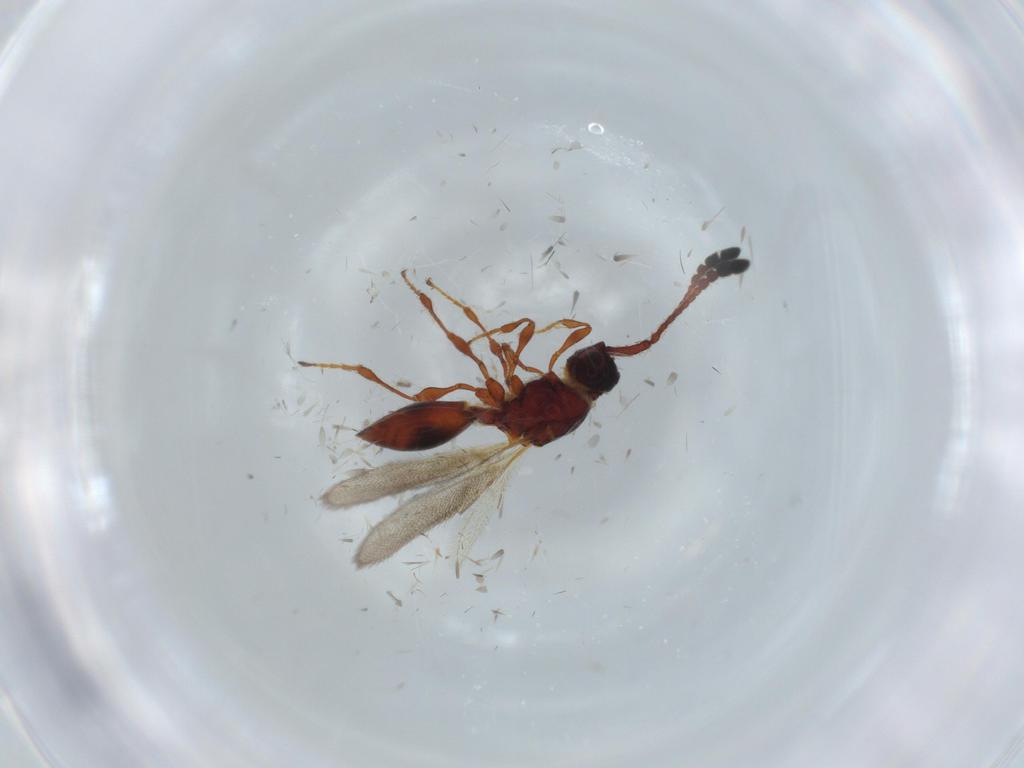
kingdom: Animalia
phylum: Arthropoda
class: Insecta
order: Hymenoptera
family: Diapriidae
